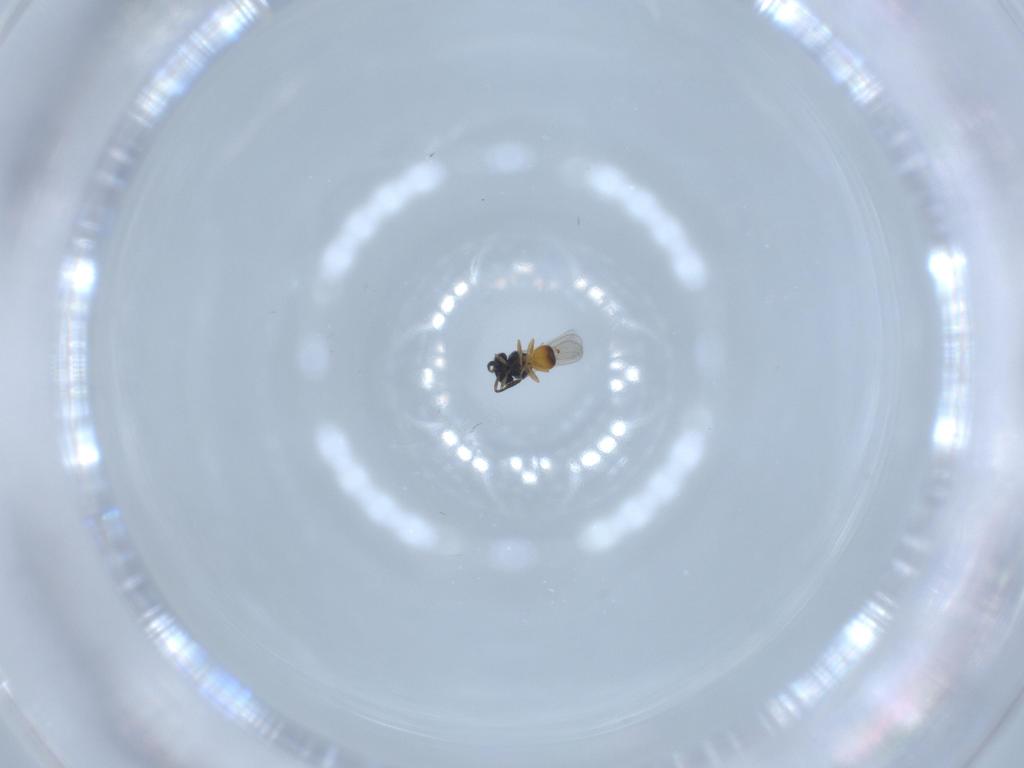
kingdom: Animalia
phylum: Arthropoda
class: Insecta
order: Hymenoptera
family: Scelionidae
